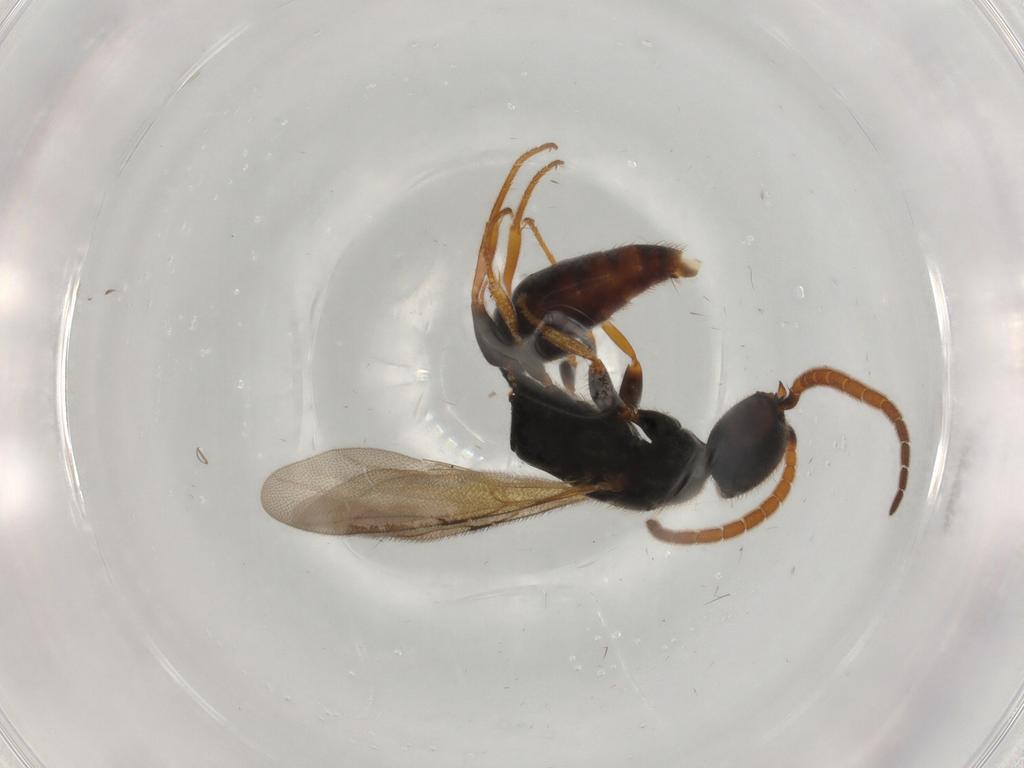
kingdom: Animalia
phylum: Arthropoda
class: Insecta
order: Hymenoptera
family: Bethylidae
